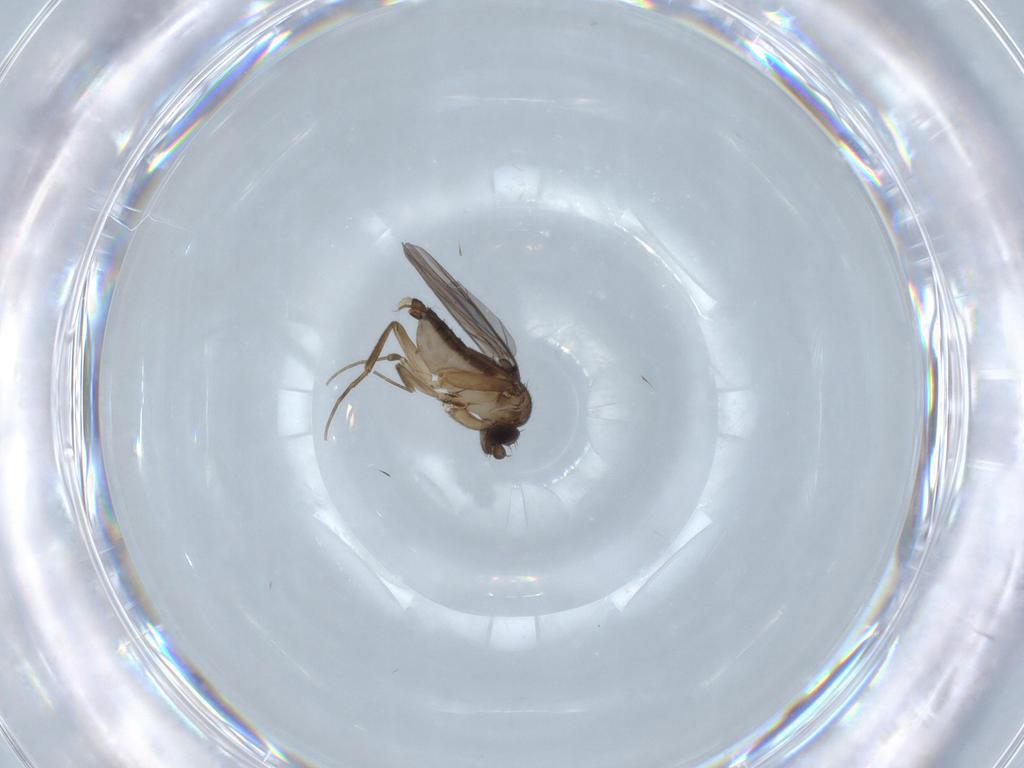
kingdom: Animalia
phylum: Arthropoda
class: Insecta
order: Diptera
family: Phoridae
